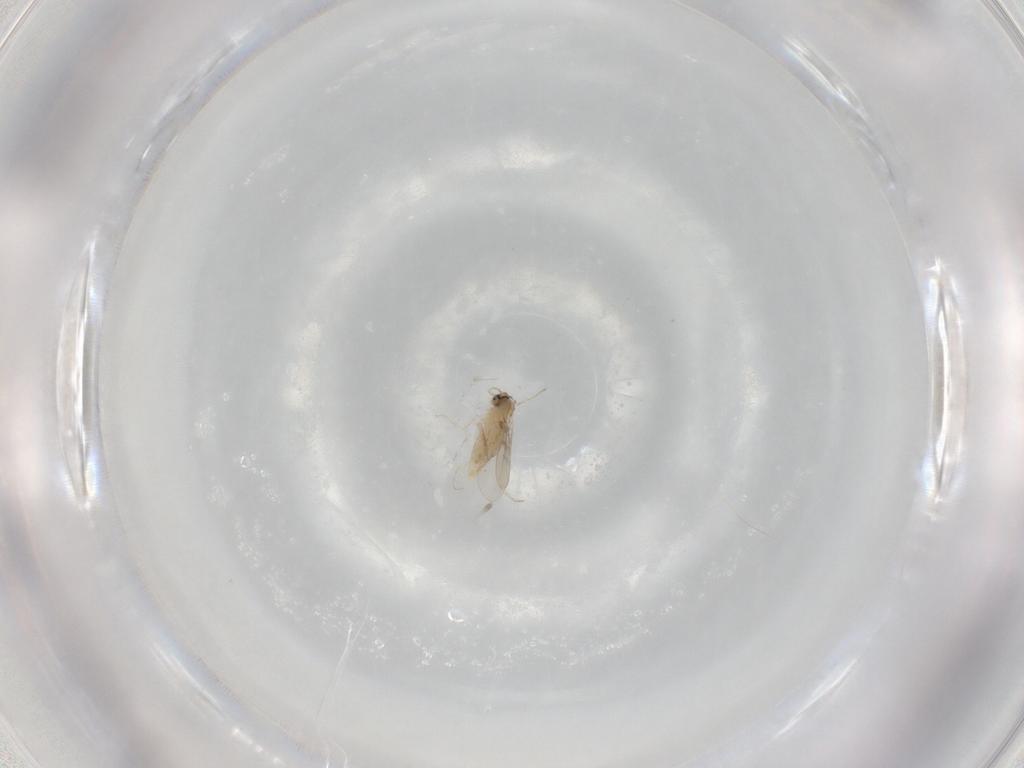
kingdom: Animalia
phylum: Arthropoda
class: Insecta
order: Diptera
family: Cecidomyiidae
